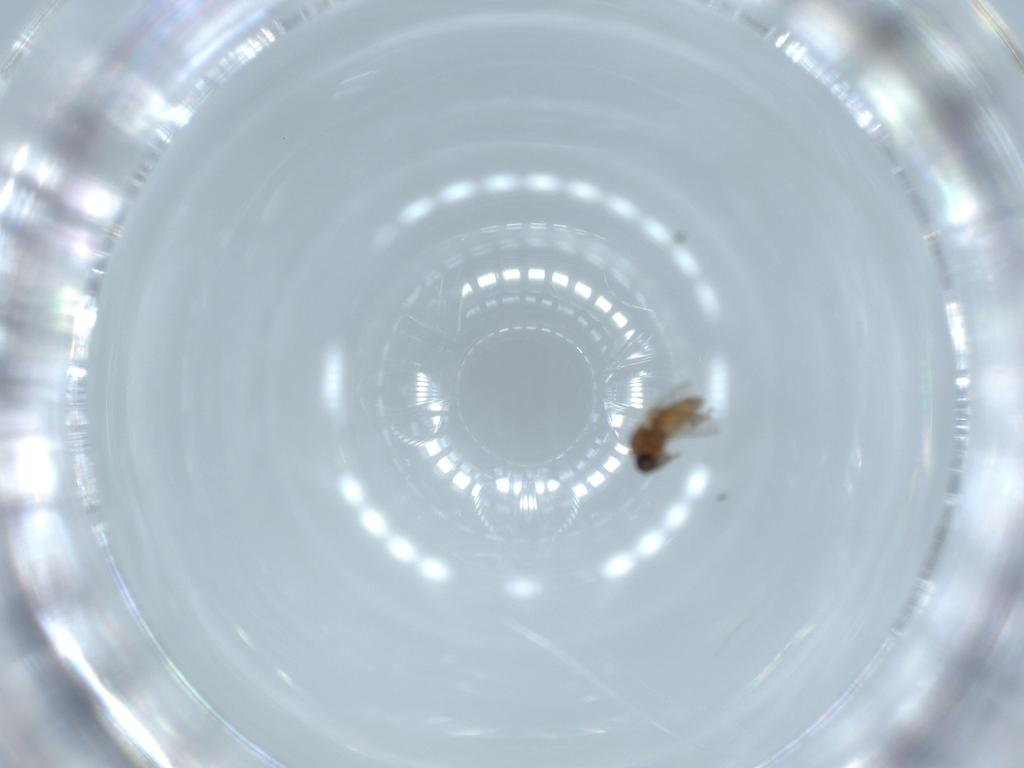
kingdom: Animalia
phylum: Arthropoda
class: Insecta
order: Diptera
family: Ceratopogonidae
